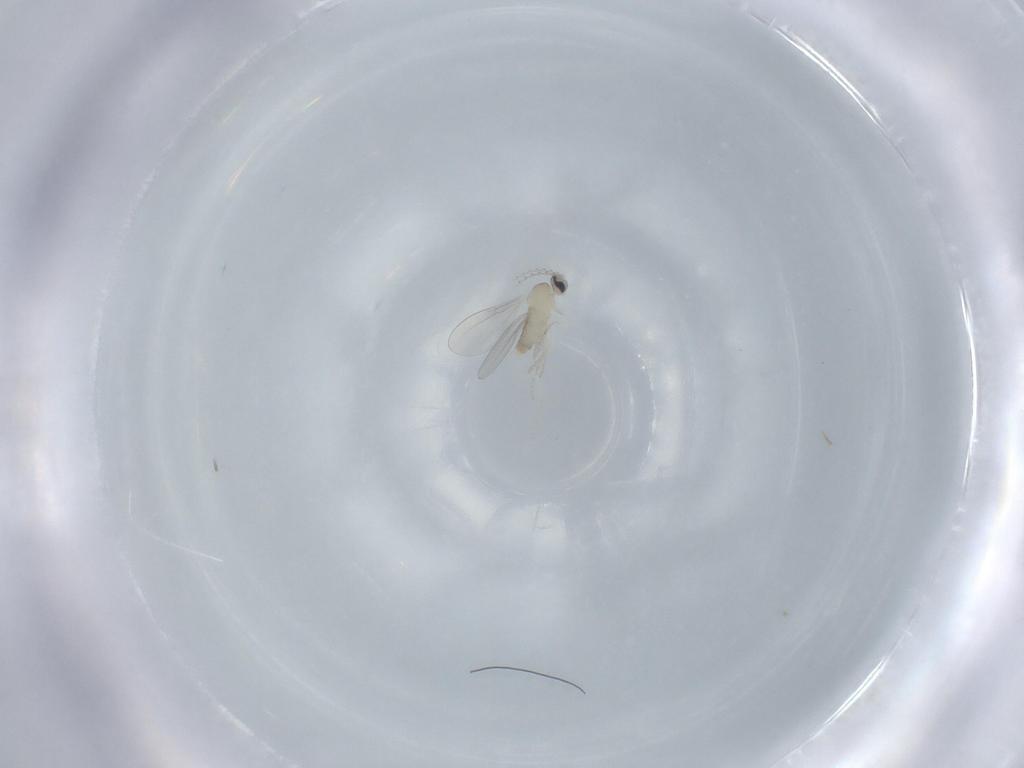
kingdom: Animalia
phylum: Arthropoda
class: Insecta
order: Diptera
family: Cecidomyiidae
